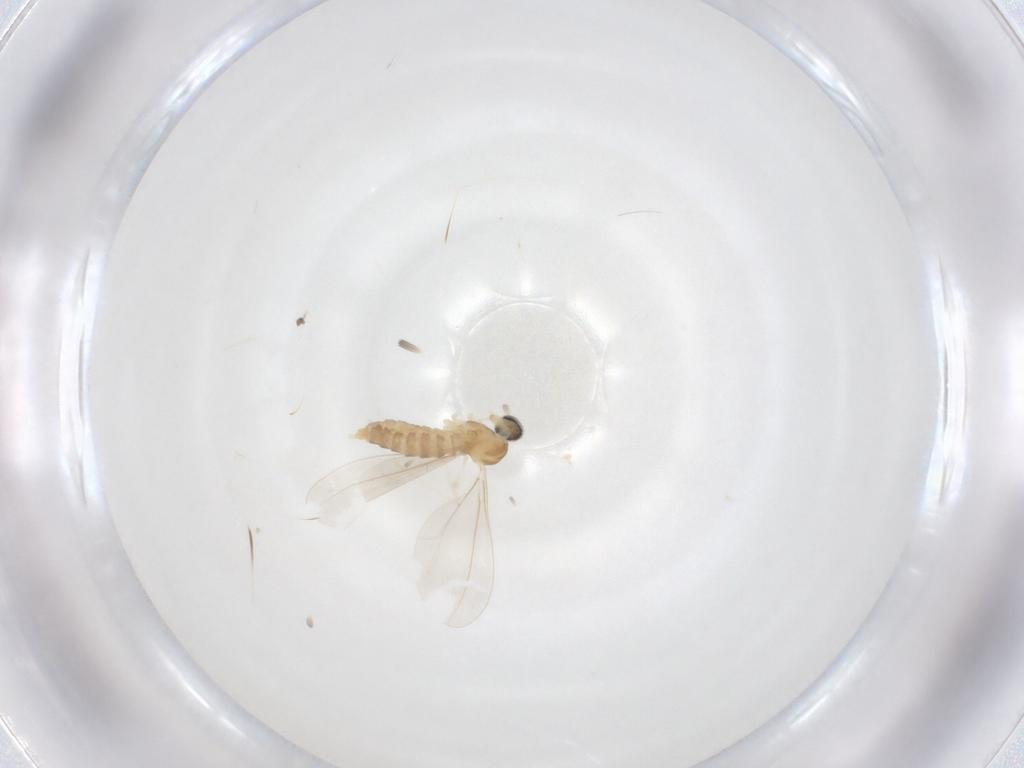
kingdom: Animalia
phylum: Arthropoda
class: Insecta
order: Diptera
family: Cecidomyiidae
